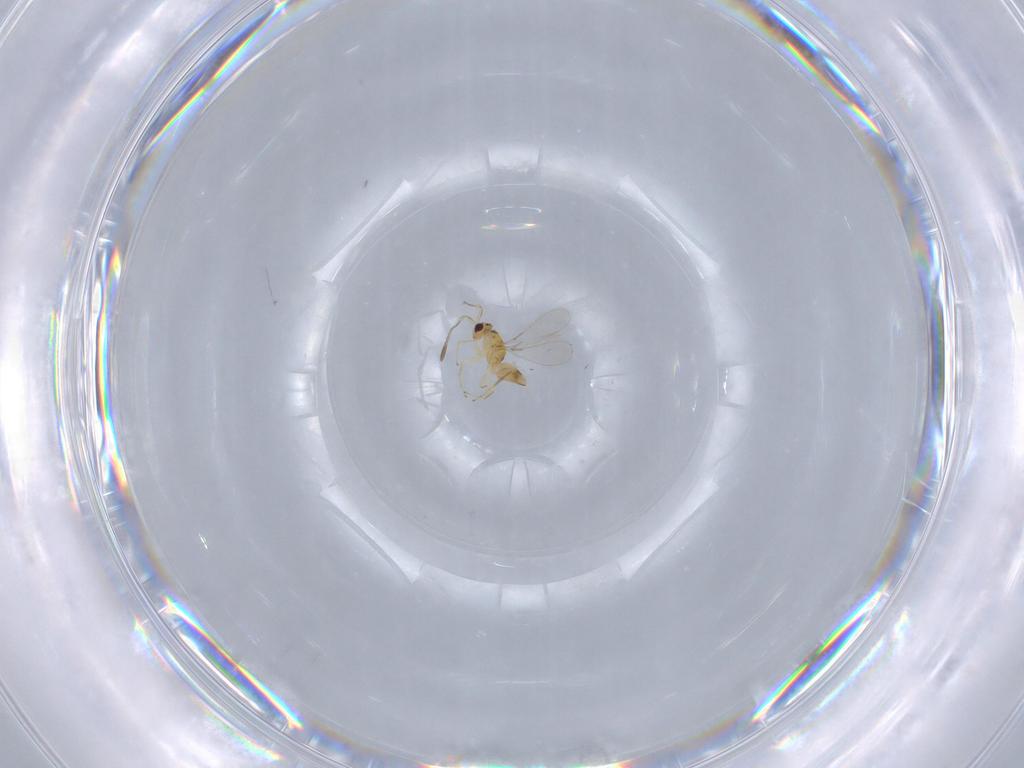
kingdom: Animalia
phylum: Arthropoda
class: Insecta
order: Hymenoptera
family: Mymaridae
